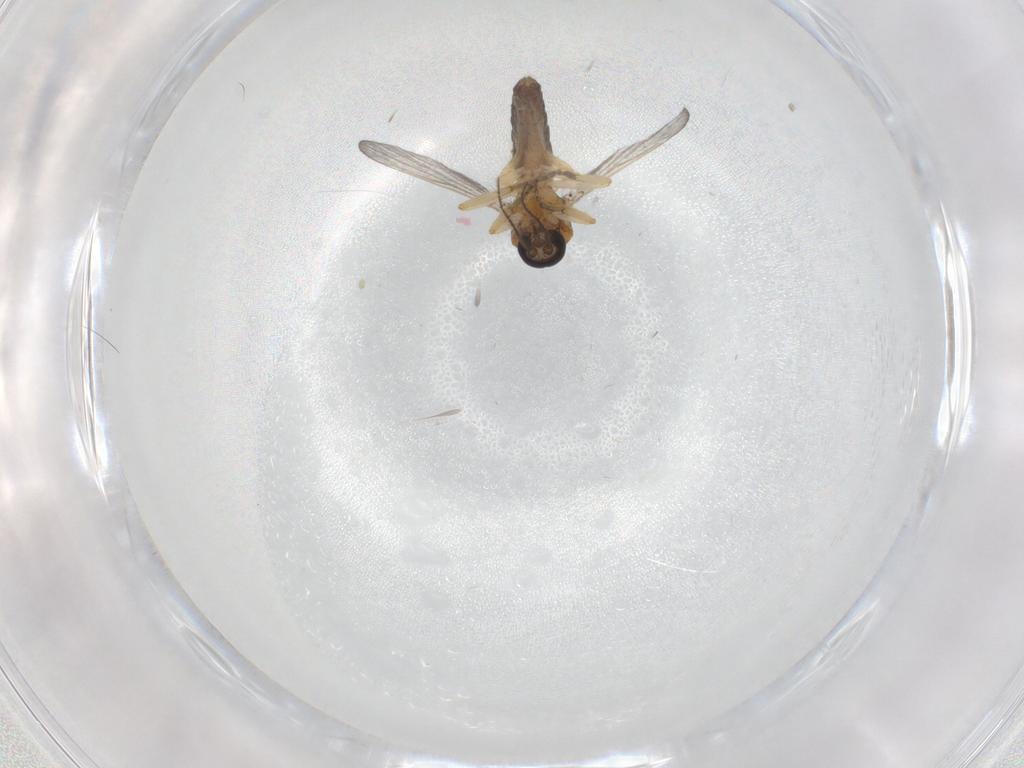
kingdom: Animalia
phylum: Arthropoda
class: Insecta
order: Diptera
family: Ceratopogonidae
